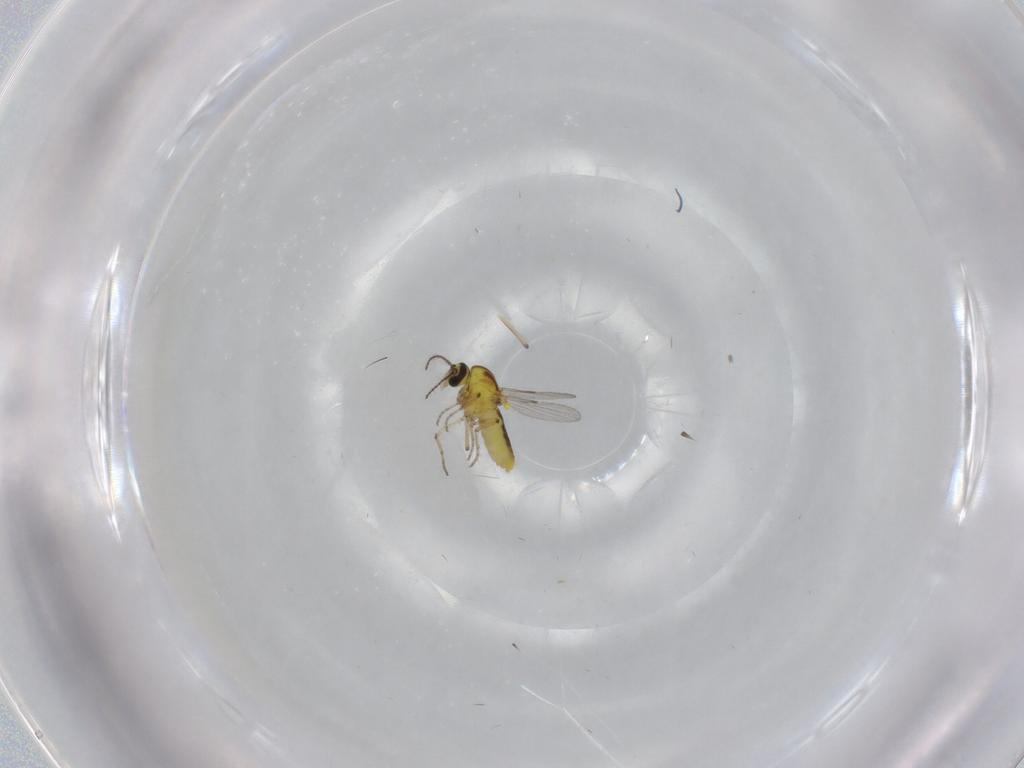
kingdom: Animalia
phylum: Arthropoda
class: Insecta
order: Diptera
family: Ceratopogonidae
